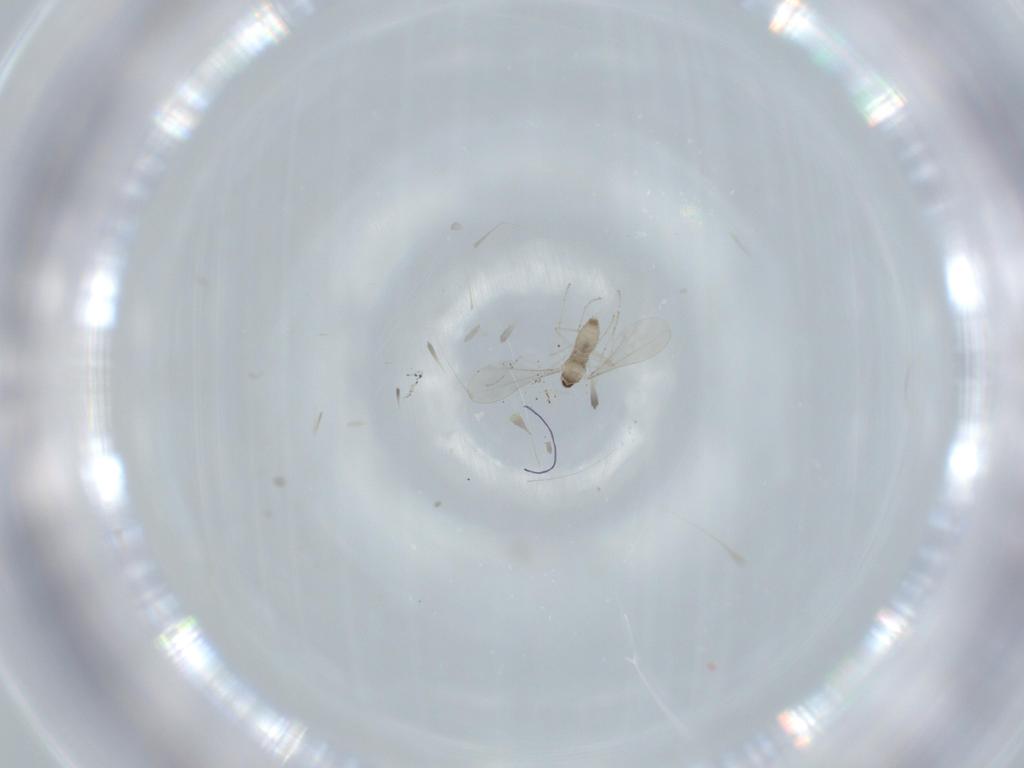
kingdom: Animalia
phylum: Arthropoda
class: Insecta
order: Diptera
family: Cecidomyiidae
